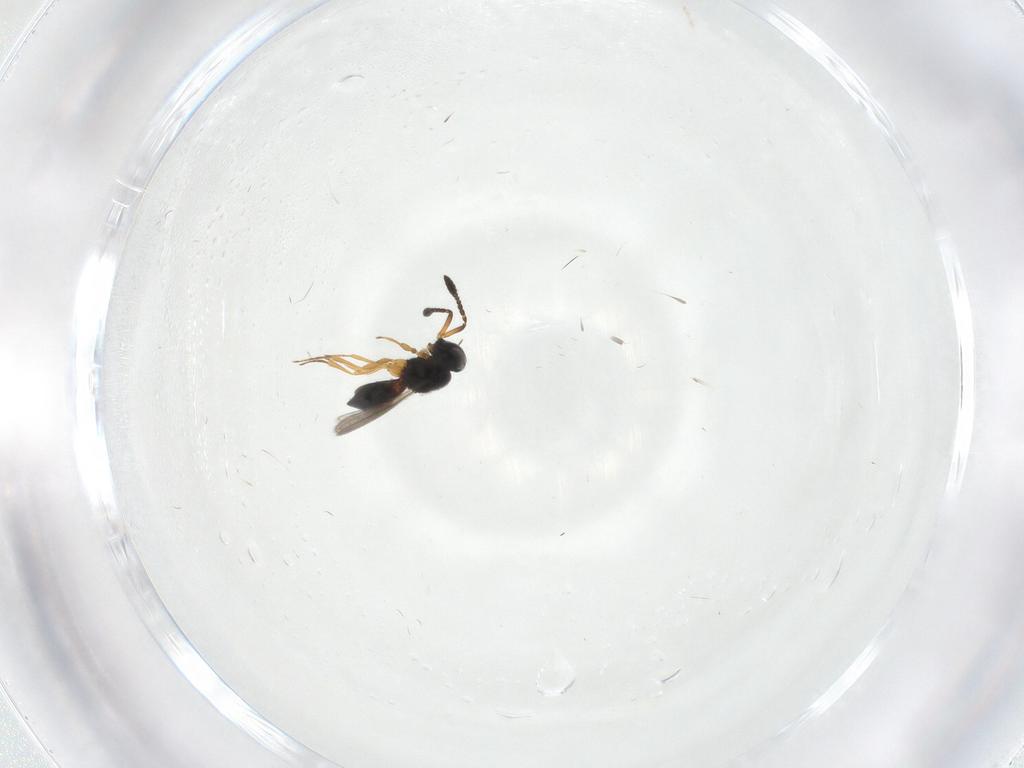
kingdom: Animalia
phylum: Arthropoda
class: Insecta
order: Hymenoptera
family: Scelionidae
